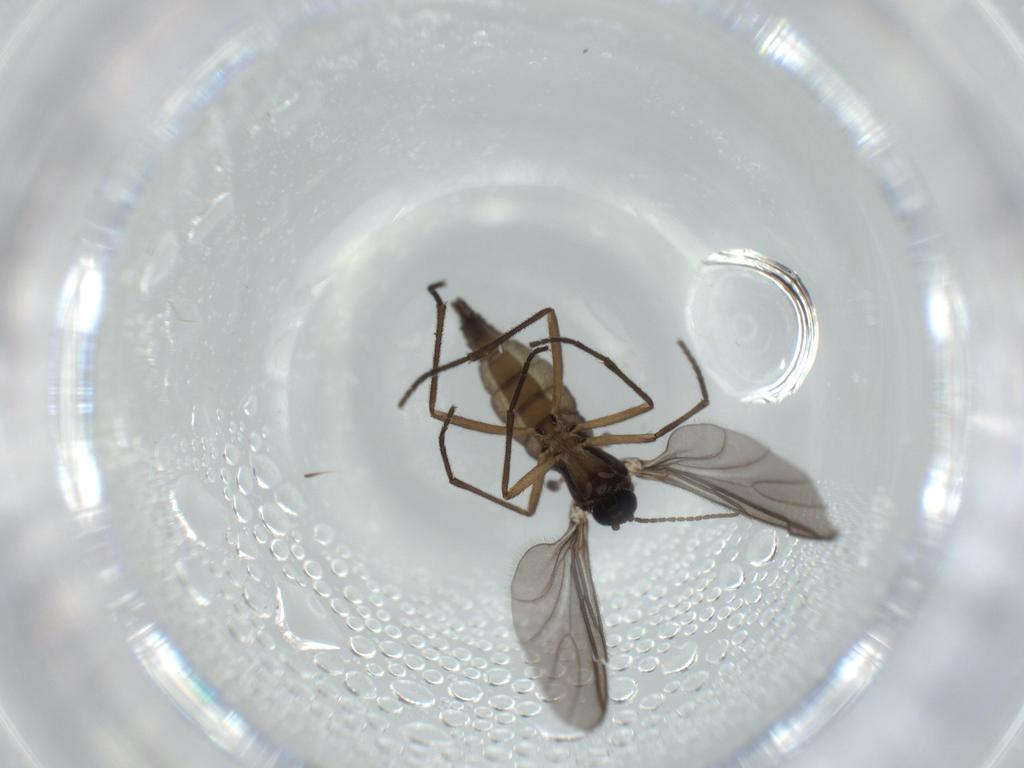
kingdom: Animalia
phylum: Arthropoda
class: Insecta
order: Diptera
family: Sciaridae
